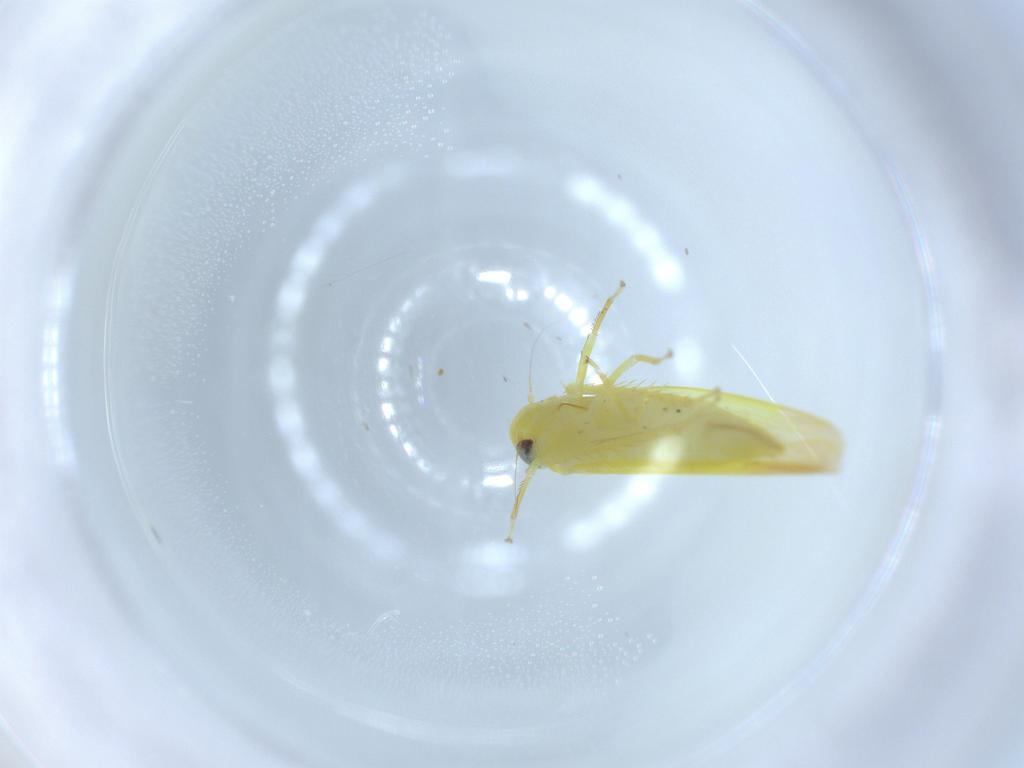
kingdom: Animalia
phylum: Arthropoda
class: Insecta
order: Hemiptera
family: Cicadellidae
